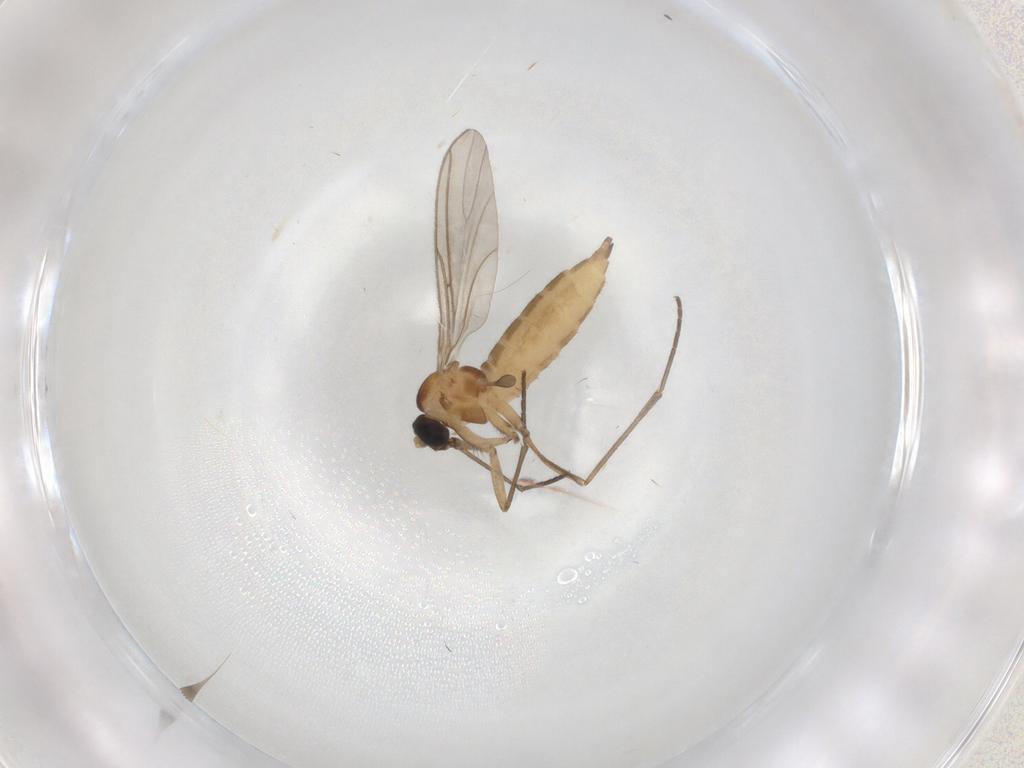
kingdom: Animalia
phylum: Arthropoda
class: Insecta
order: Diptera
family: Sciaridae
